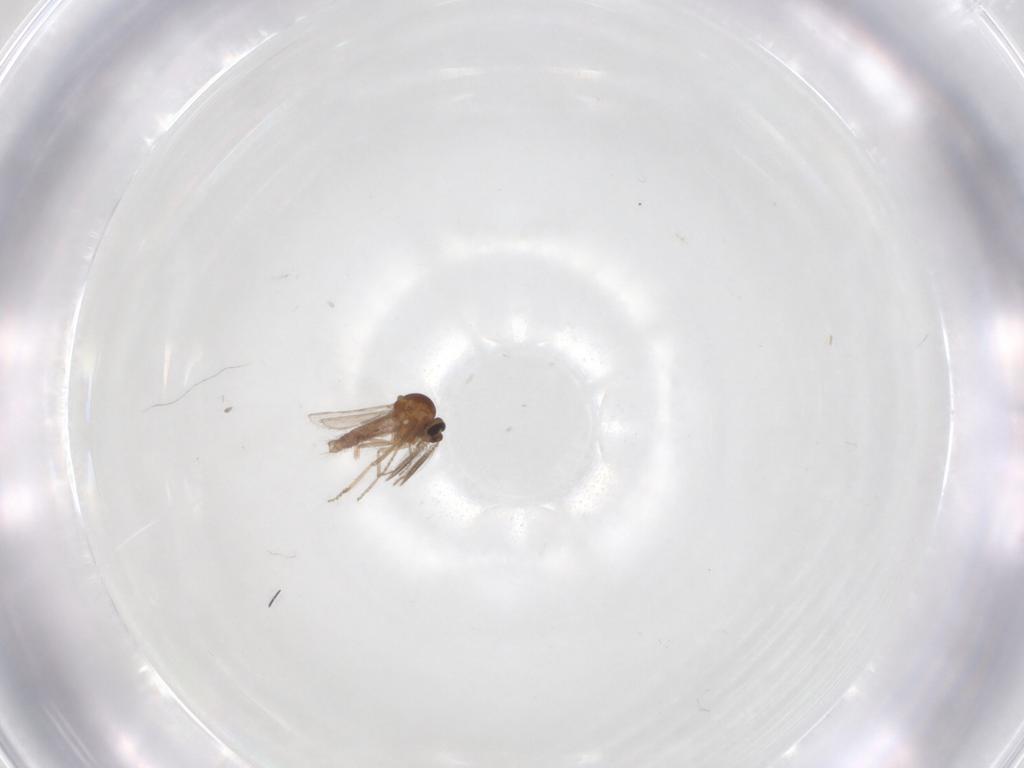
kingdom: Animalia
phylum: Arthropoda
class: Insecta
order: Diptera
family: Ceratopogonidae
